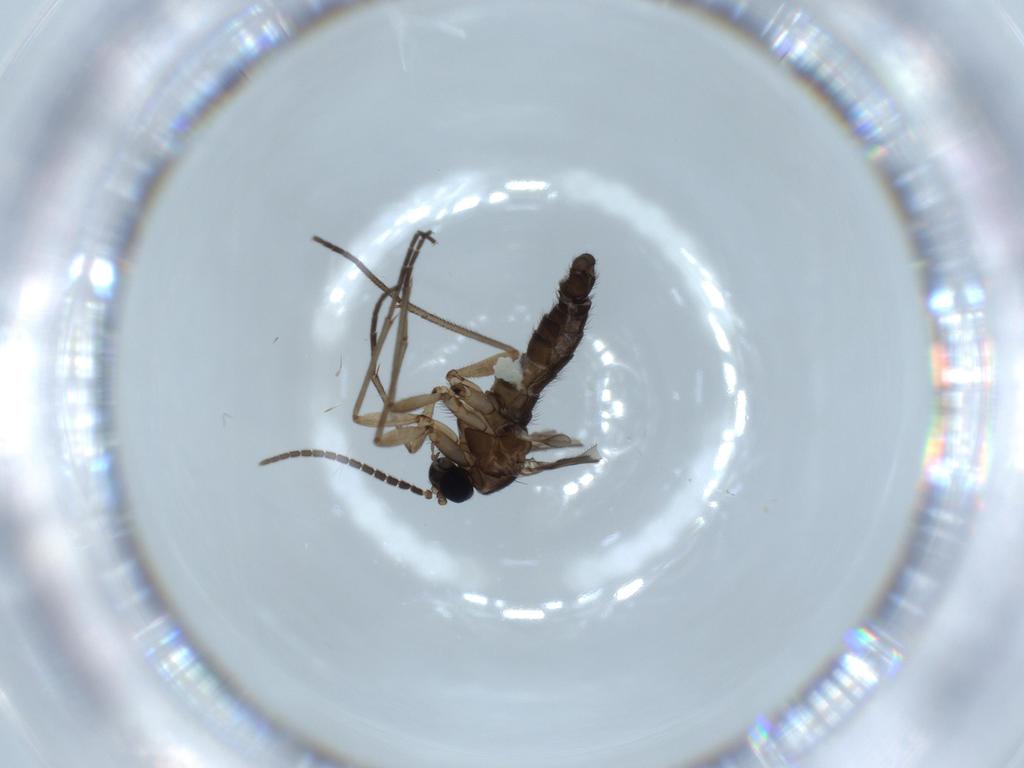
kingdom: Animalia
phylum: Arthropoda
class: Insecta
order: Diptera
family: Sciaridae
